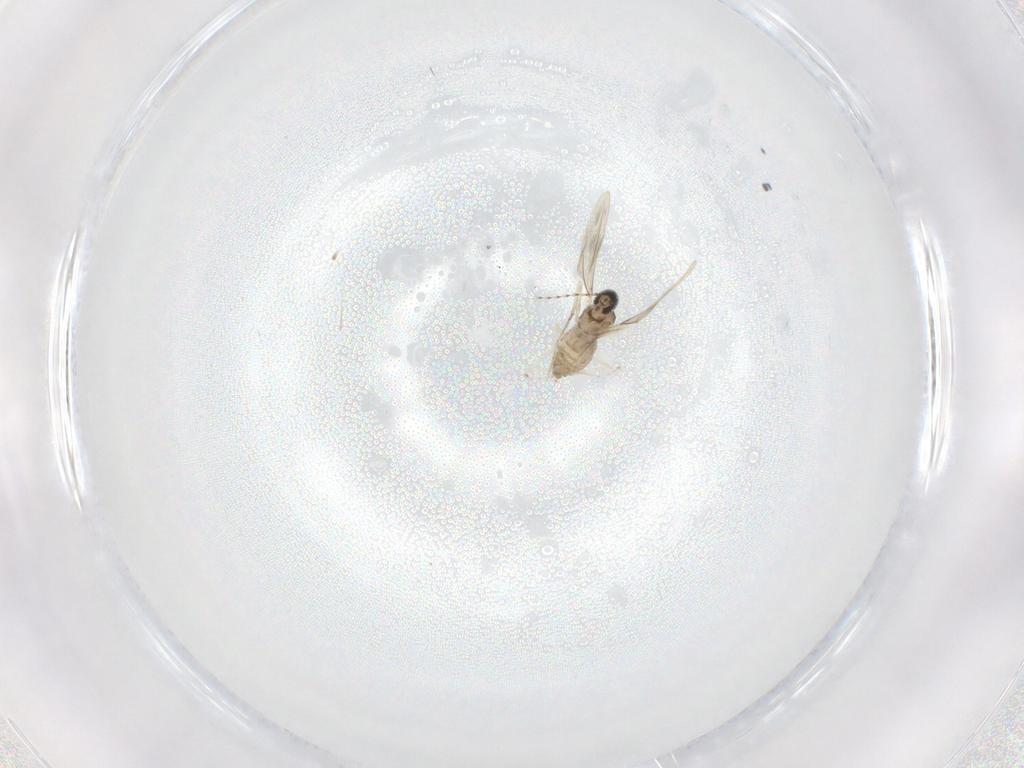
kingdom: Animalia
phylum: Arthropoda
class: Insecta
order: Diptera
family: Cecidomyiidae
